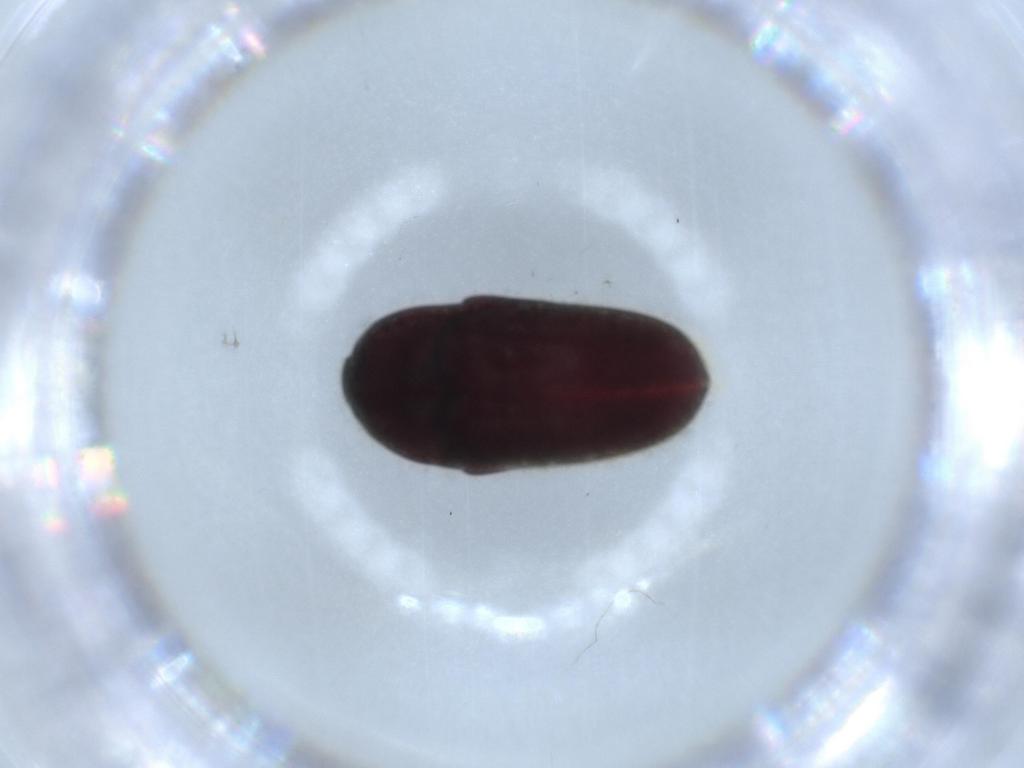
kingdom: Animalia
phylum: Arthropoda
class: Insecta
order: Coleoptera
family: Throscidae
